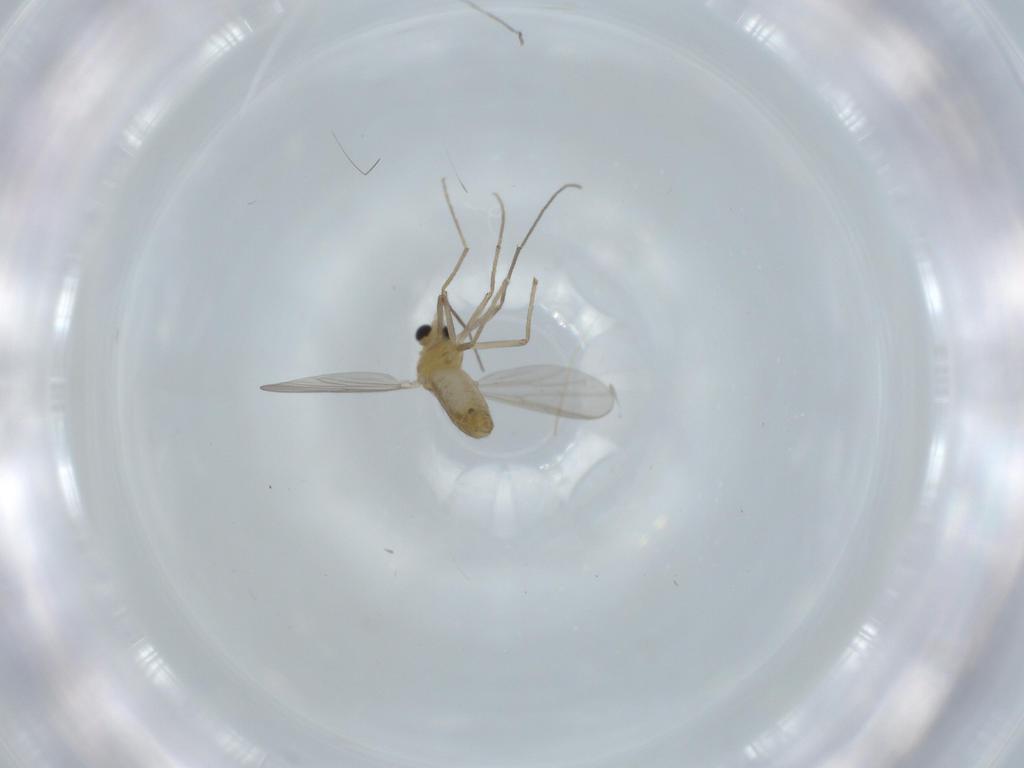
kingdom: Animalia
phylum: Arthropoda
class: Insecta
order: Diptera
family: Chironomidae
